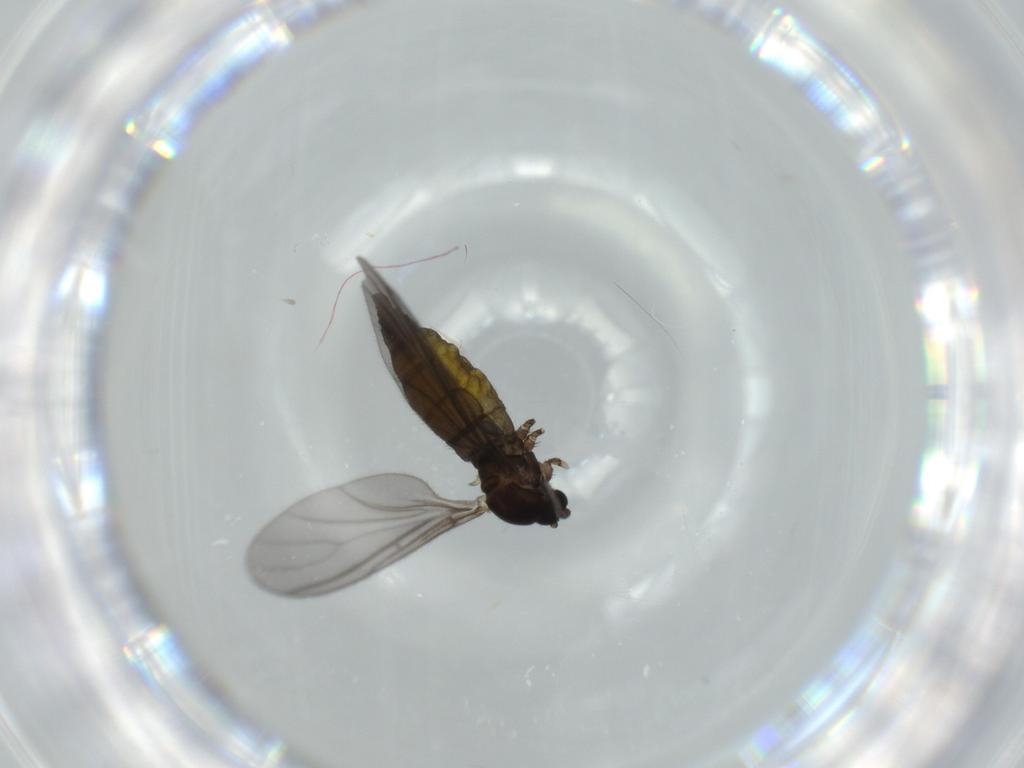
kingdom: Animalia
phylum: Arthropoda
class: Insecta
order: Diptera
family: Sciaridae
